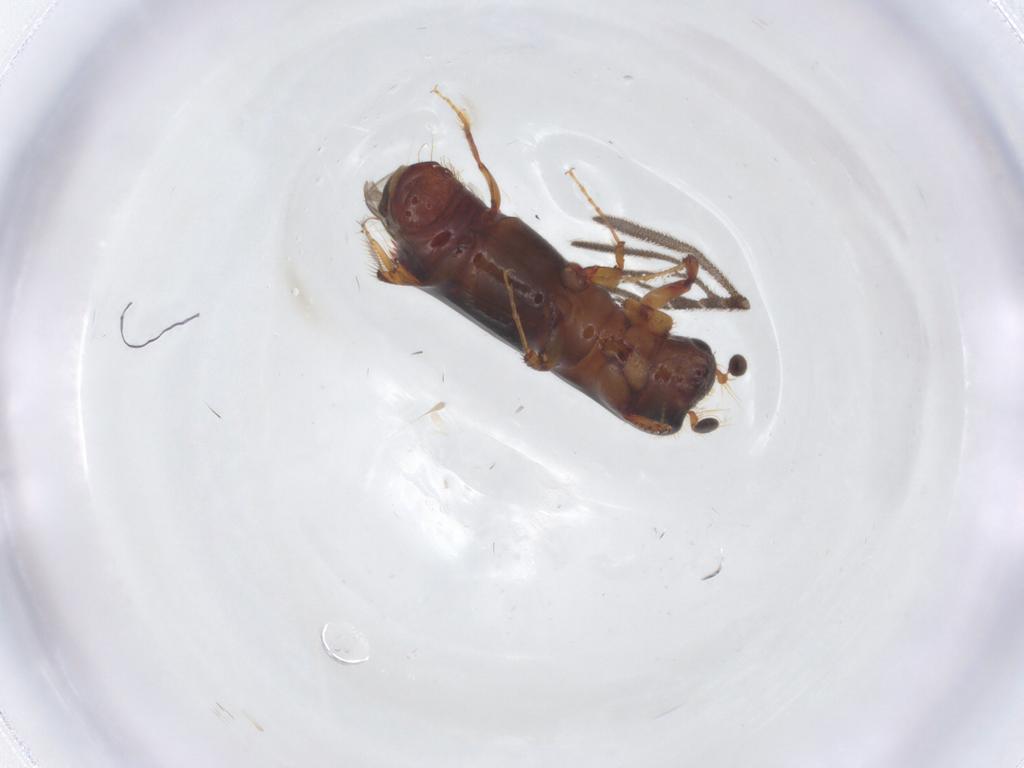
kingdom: Animalia
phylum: Arthropoda
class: Insecta
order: Coleoptera
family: Curculionidae
